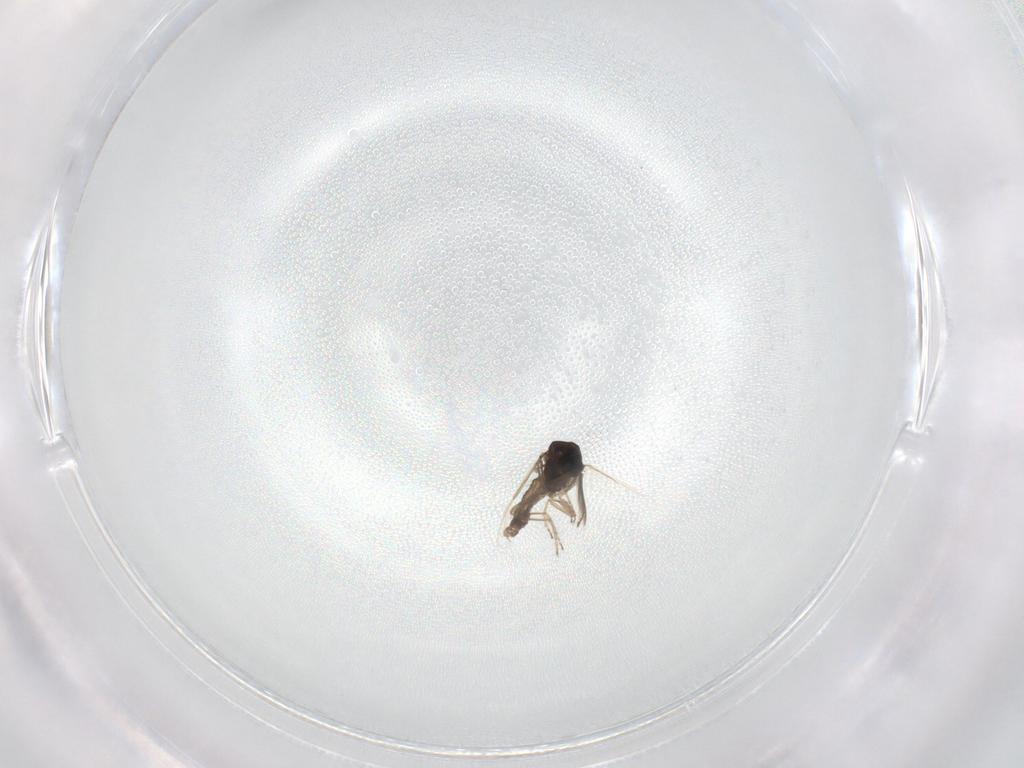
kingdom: Animalia
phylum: Arthropoda
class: Insecta
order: Diptera
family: Ceratopogonidae
